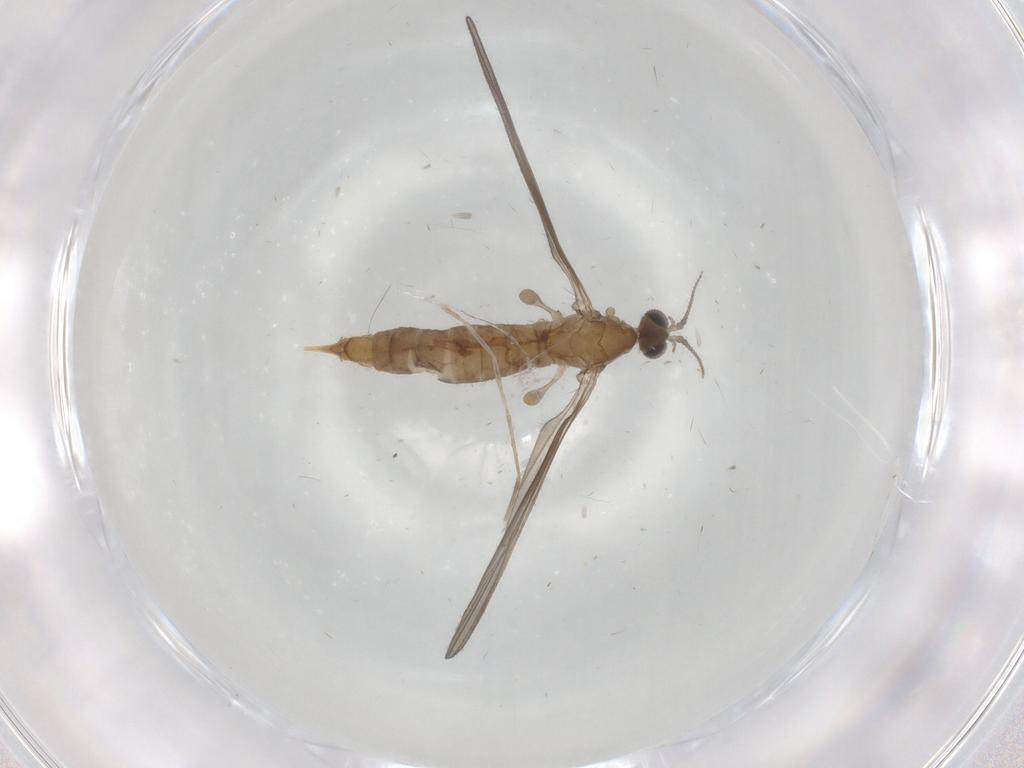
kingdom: Animalia
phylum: Arthropoda
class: Insecta
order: Diptera
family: Limoniidae
